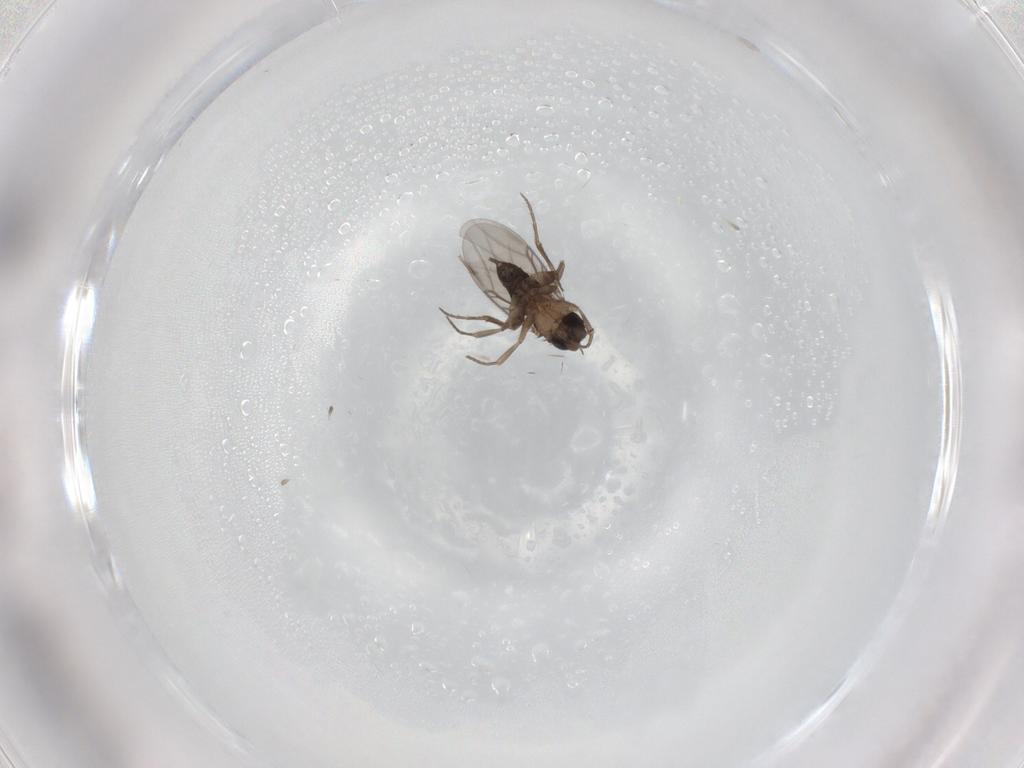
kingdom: Animalia
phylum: Arthropoda
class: Insecta
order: Diptera
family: Cecidomyiidae
